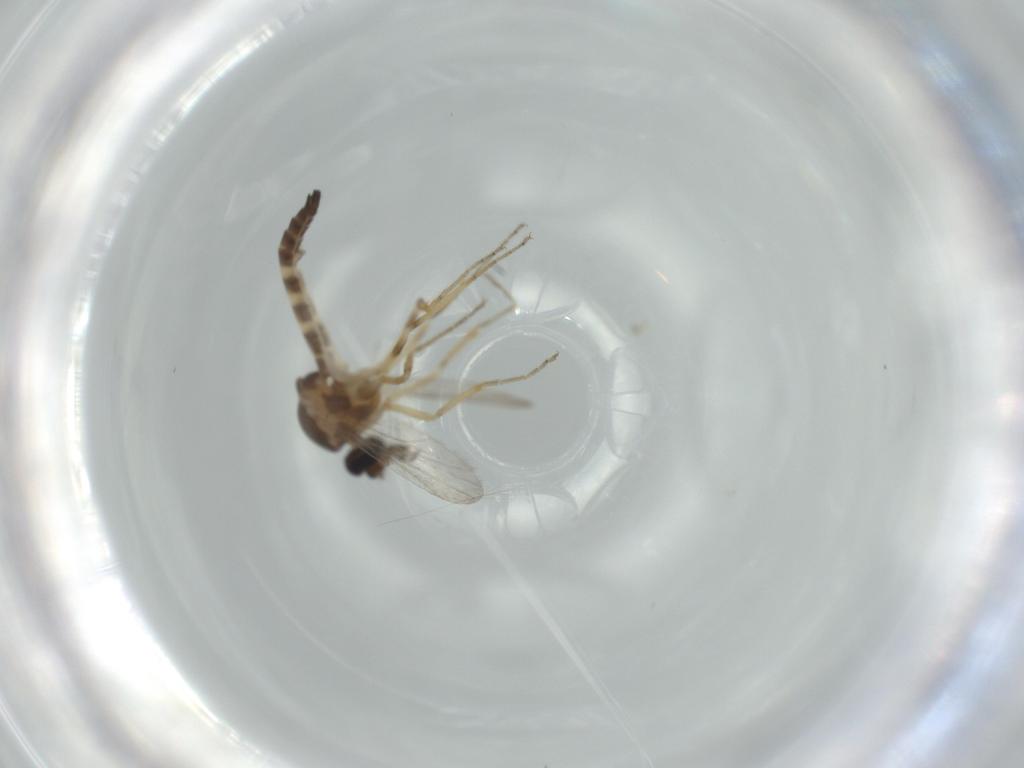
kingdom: Animalia
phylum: Arthropoda
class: Insecta
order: Diptera
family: Ceratopogonidae
